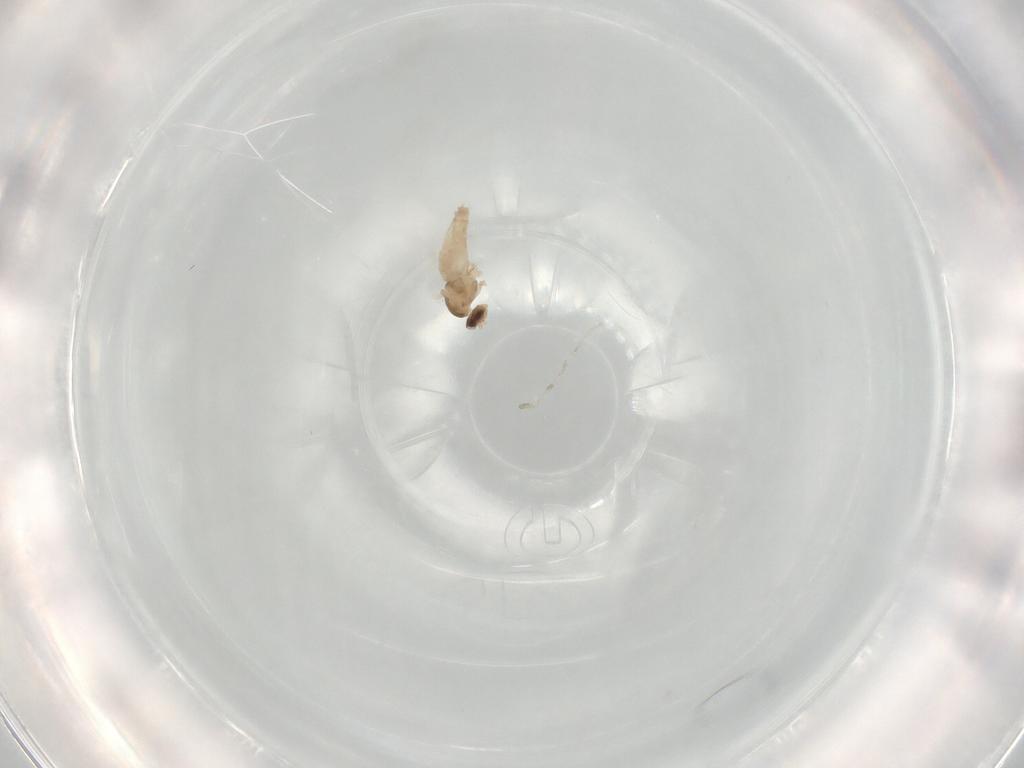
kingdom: Animalia
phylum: Arthropoda
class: Insecta
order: Diptera
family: Cecidomyiidae
